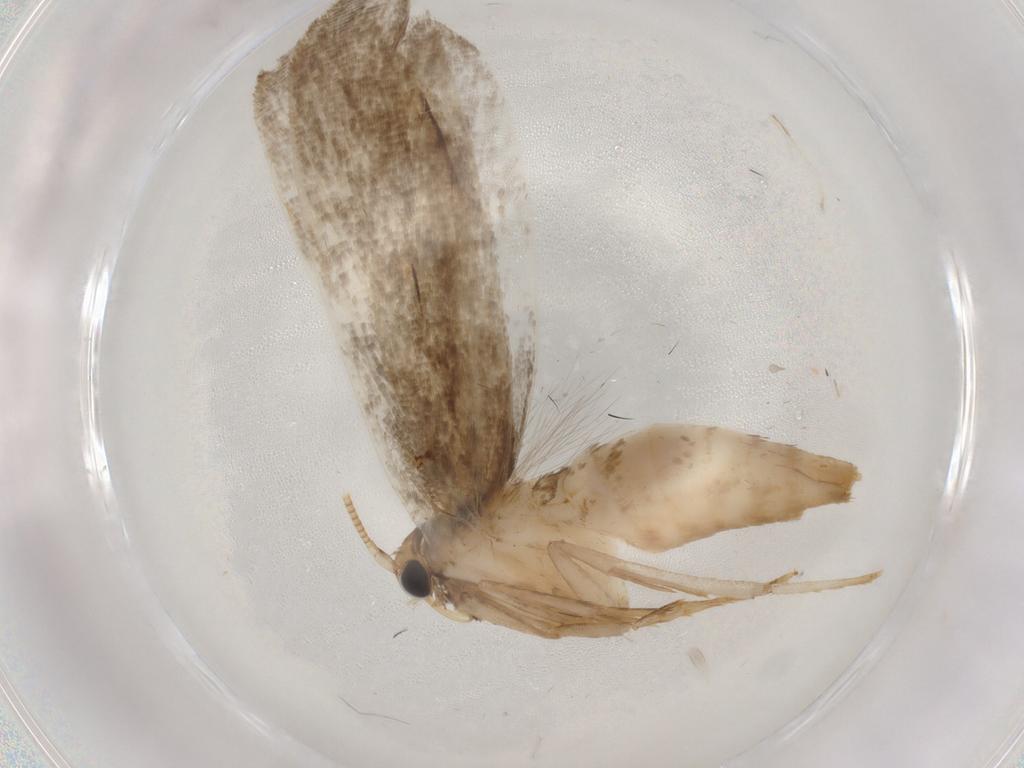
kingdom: Animalia
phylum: Arthropoda
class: Insecta
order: Lepidoptera
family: Tineidae
